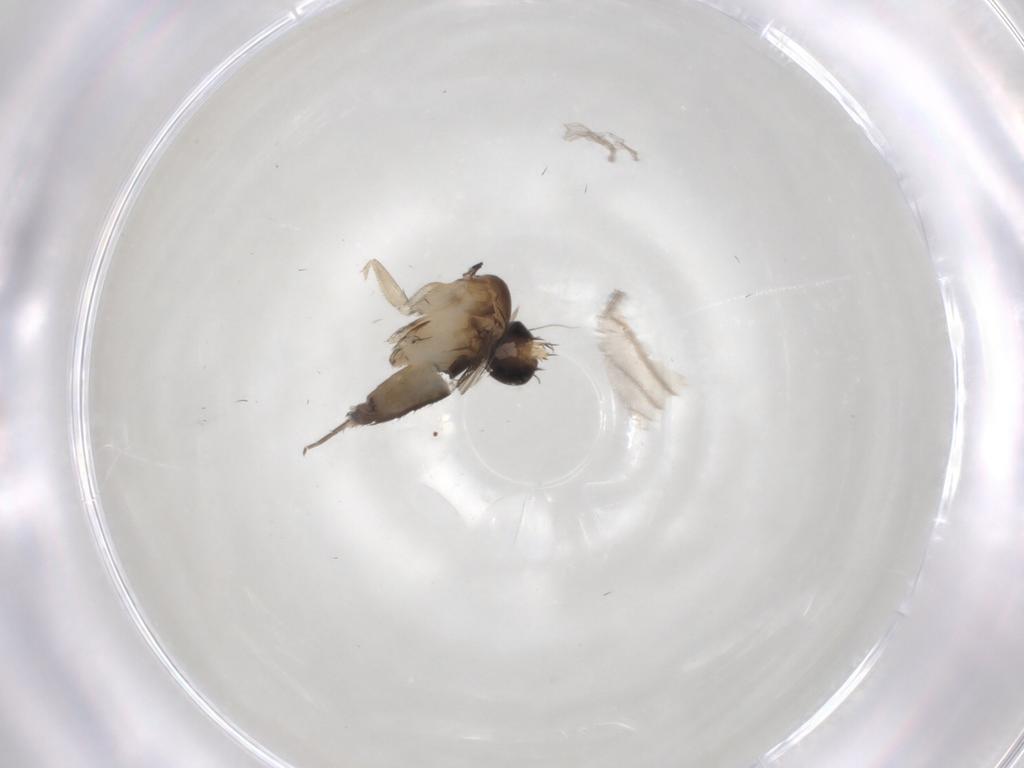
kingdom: Animalia
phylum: Arthropoda
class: Insecta
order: Diptera
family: Phoridae
